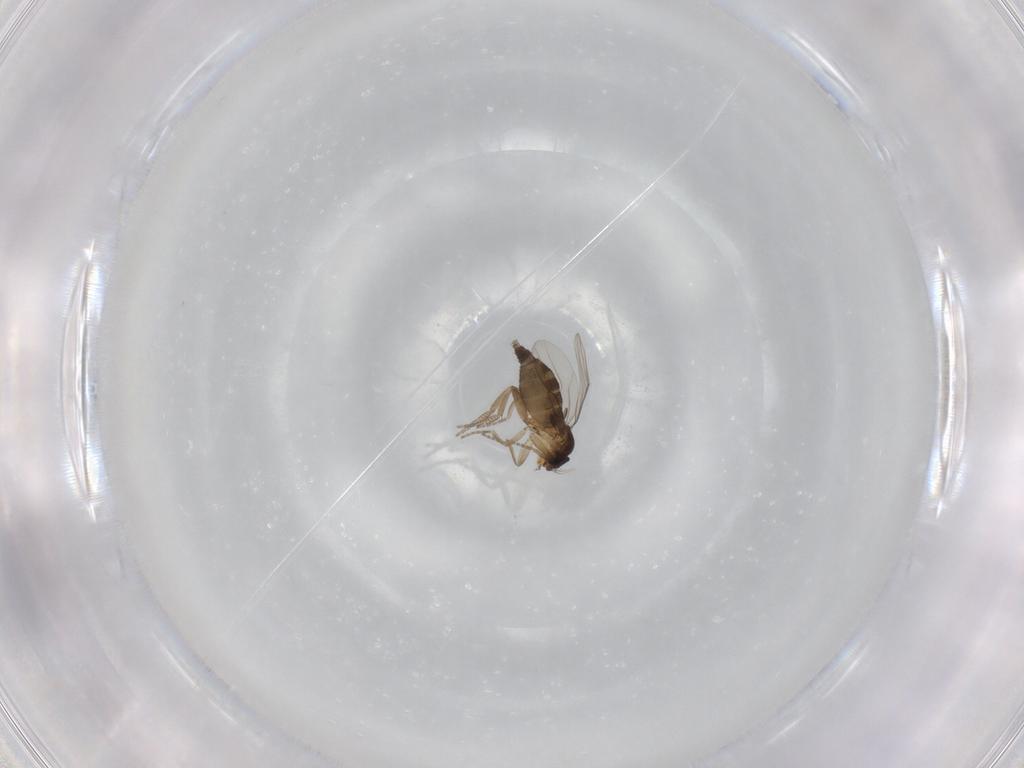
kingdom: Animalia
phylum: Arthropoda
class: Insecta
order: Diptera
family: Phoridae
